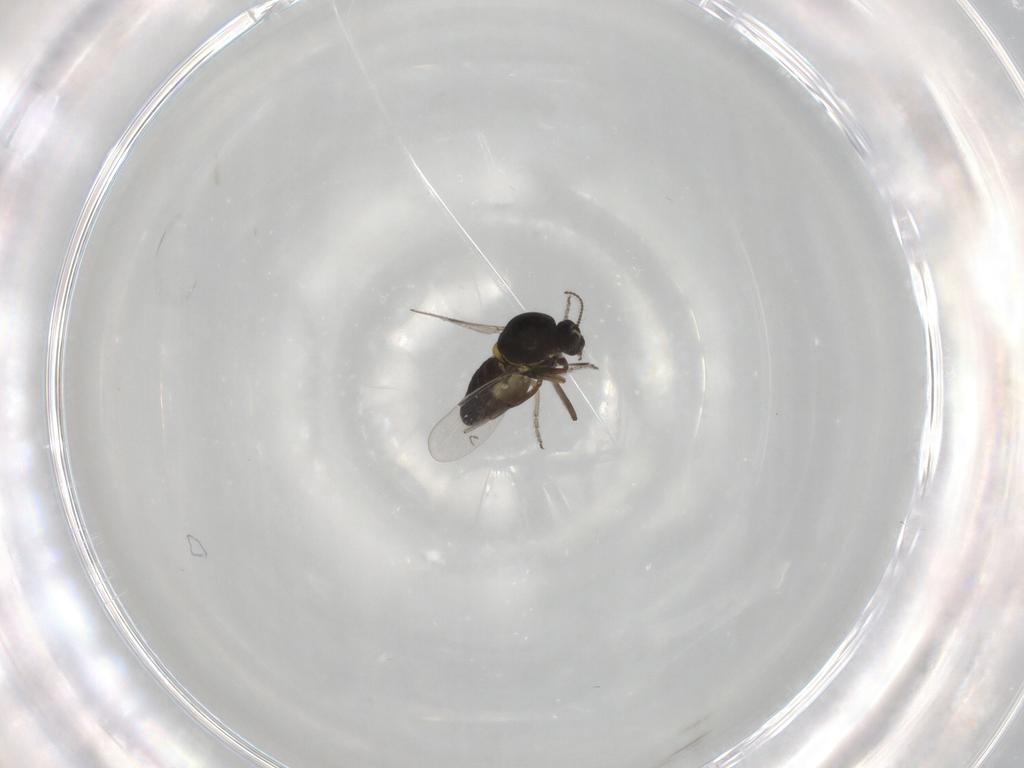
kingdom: Animalia
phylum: Arthropoda
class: Insecta
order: Diptera
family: Ceratopogonidae
